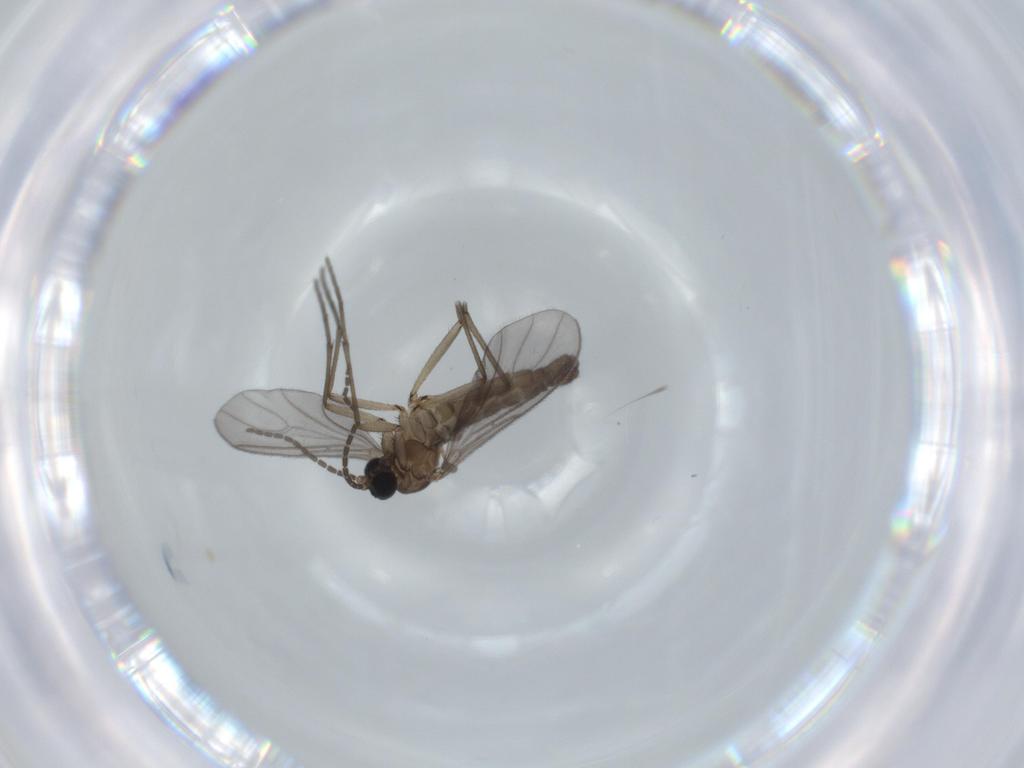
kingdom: Animalia
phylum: Arthropoda
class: Insecta
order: Diptera
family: Sciaridae
